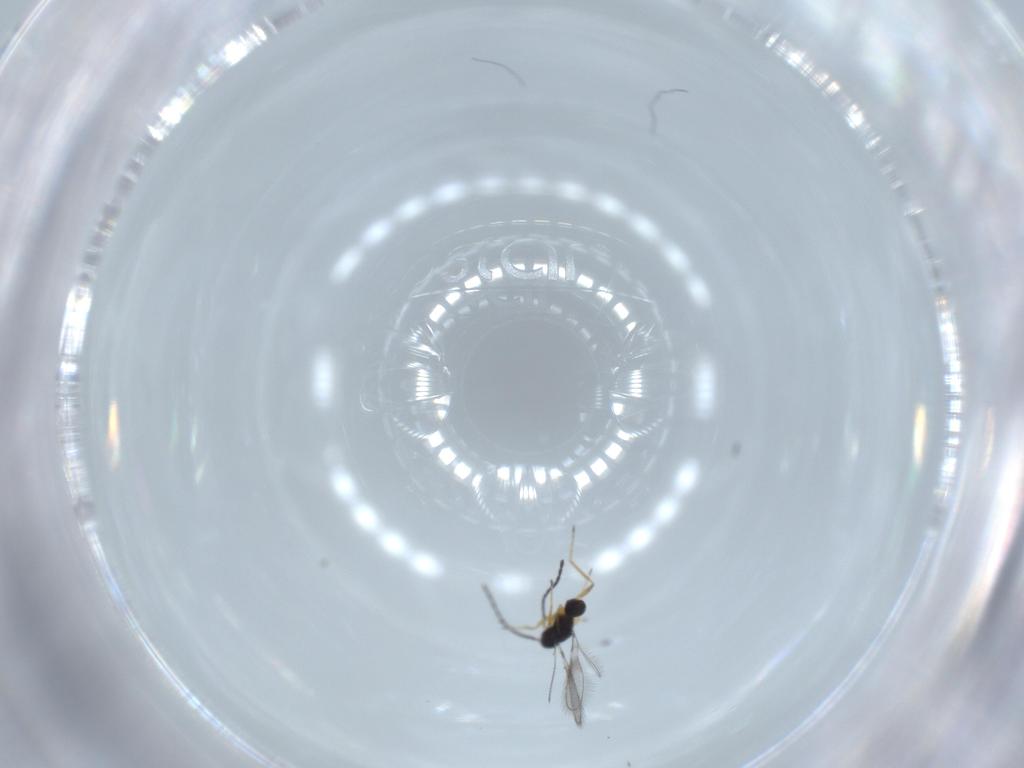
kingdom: Animalia
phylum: Arthropoda
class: Insecta
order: Hymenoptera
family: Mymaridae
